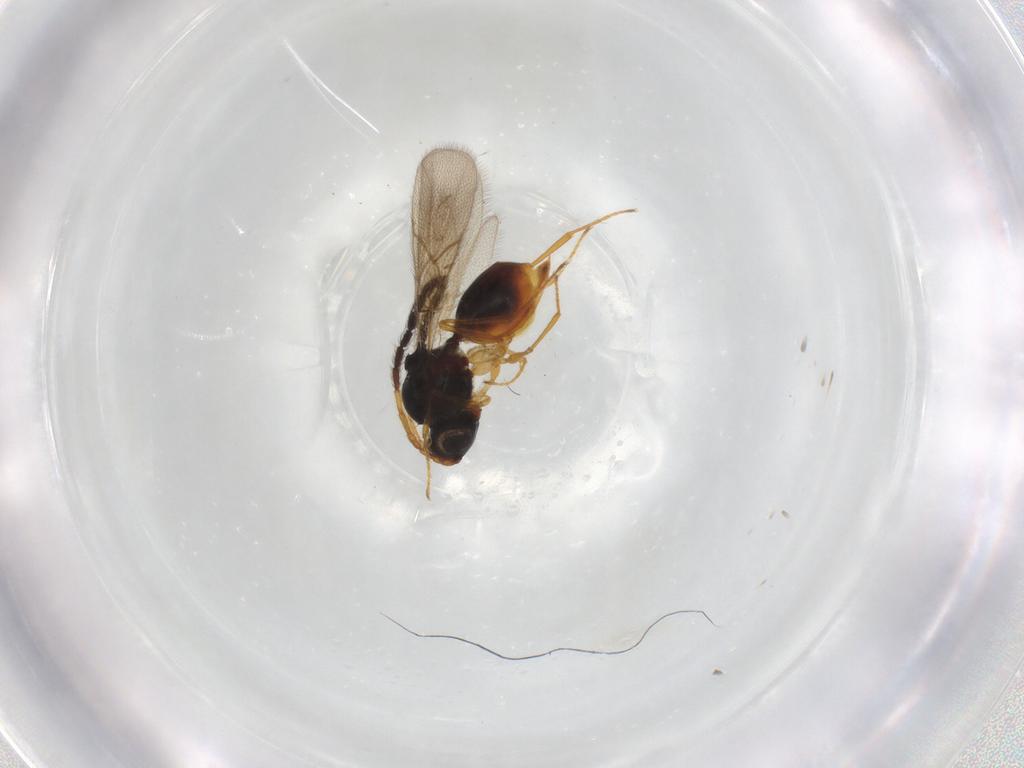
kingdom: Animalia
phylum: Arthropoda
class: Insecta
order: Hymenoptera
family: Figitidae
